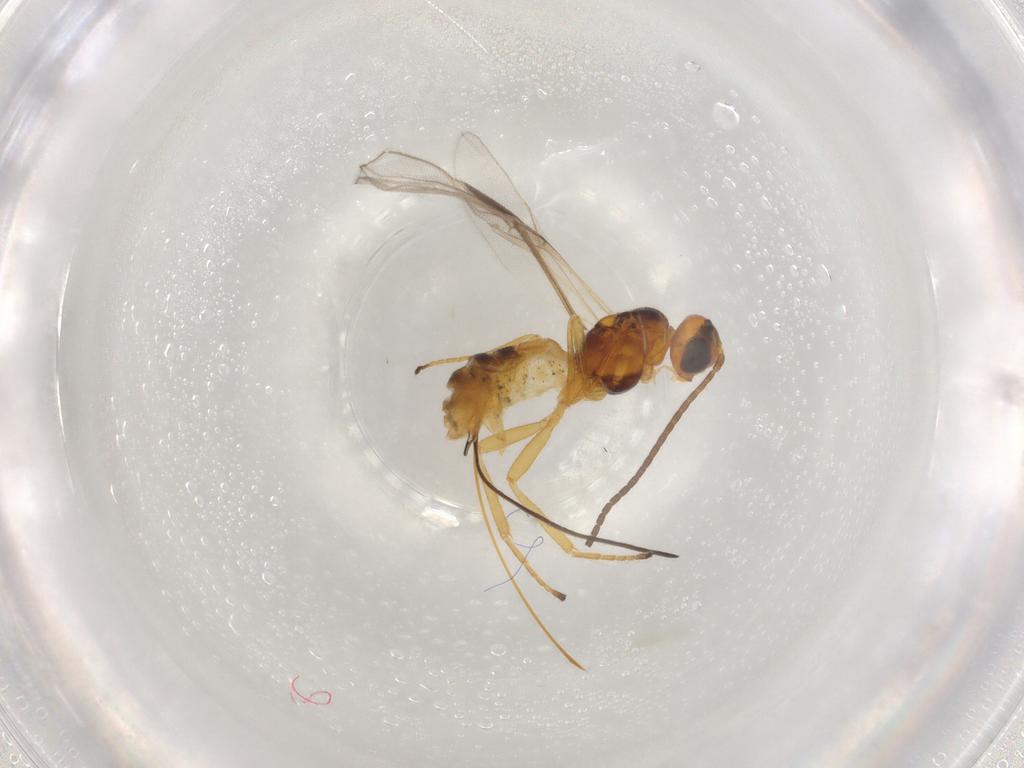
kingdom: Animalia
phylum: Arthropoda
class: Insecta
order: Hymenoptera
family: Braconidae
